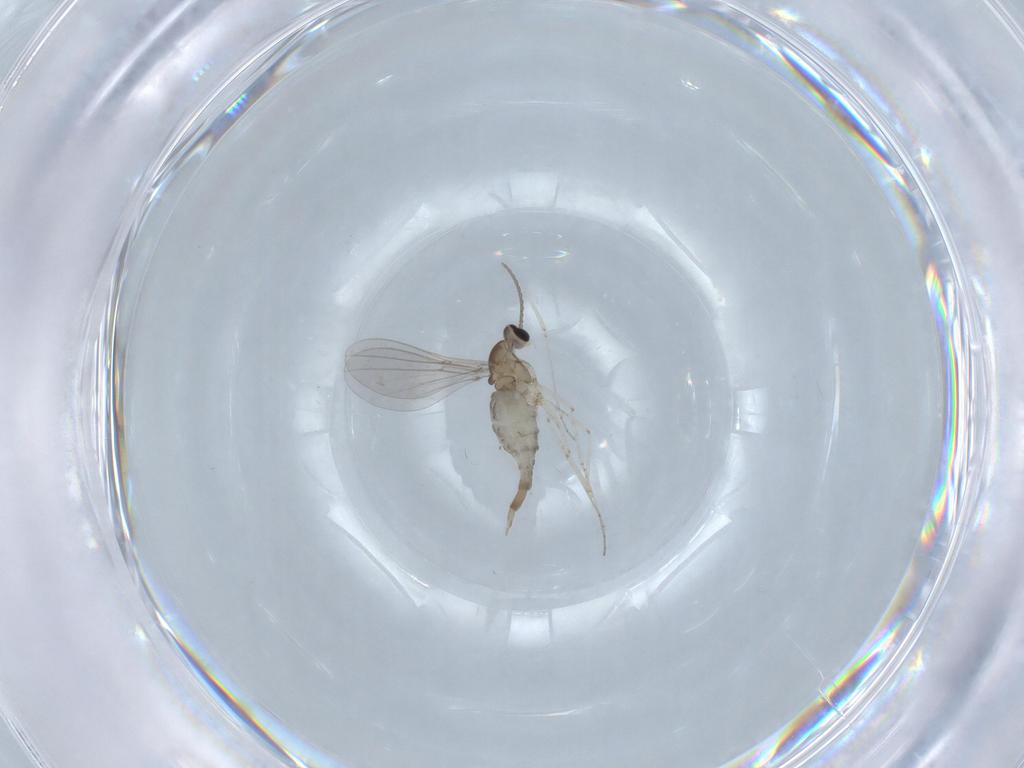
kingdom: Animalia
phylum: Arthropoda
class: Insecta
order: Diptera
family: Cecidomyiidae
